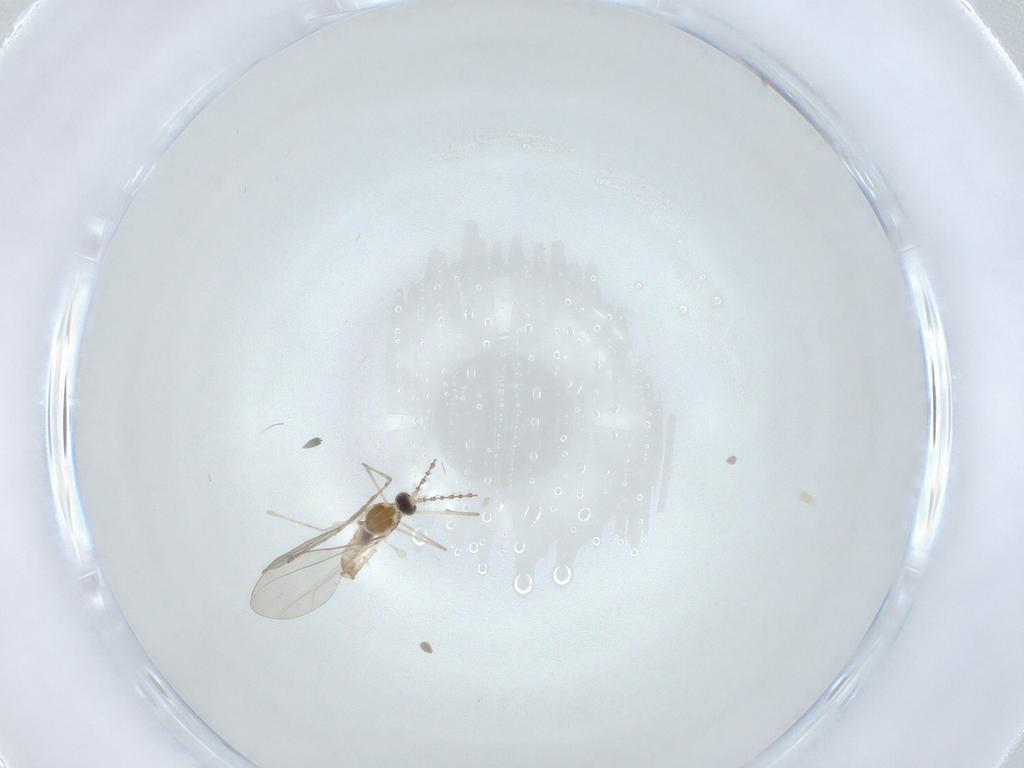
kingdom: Animalia
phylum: Arthropoda
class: Insecta
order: Diptera
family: Cecidomyiidae
